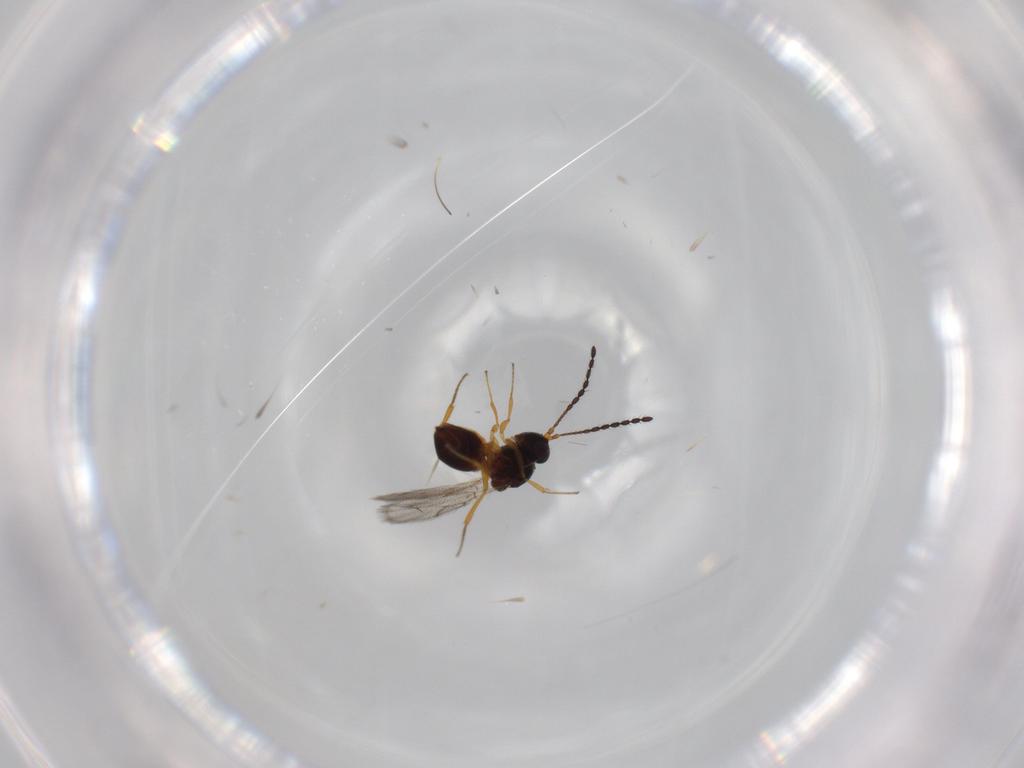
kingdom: Animalia
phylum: Arthropoda
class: Insecta
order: Hymenoptera
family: Figitidae
